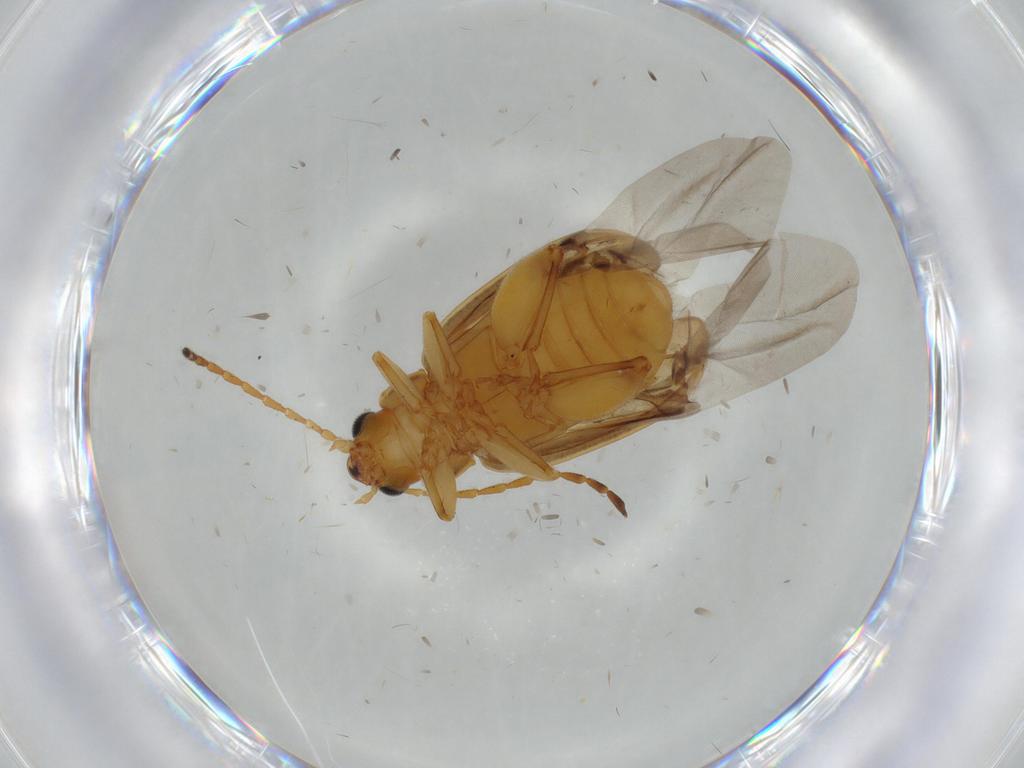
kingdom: Animalia
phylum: Arthropoda
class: Insecta
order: Coleoptera
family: Chrysomelidae
